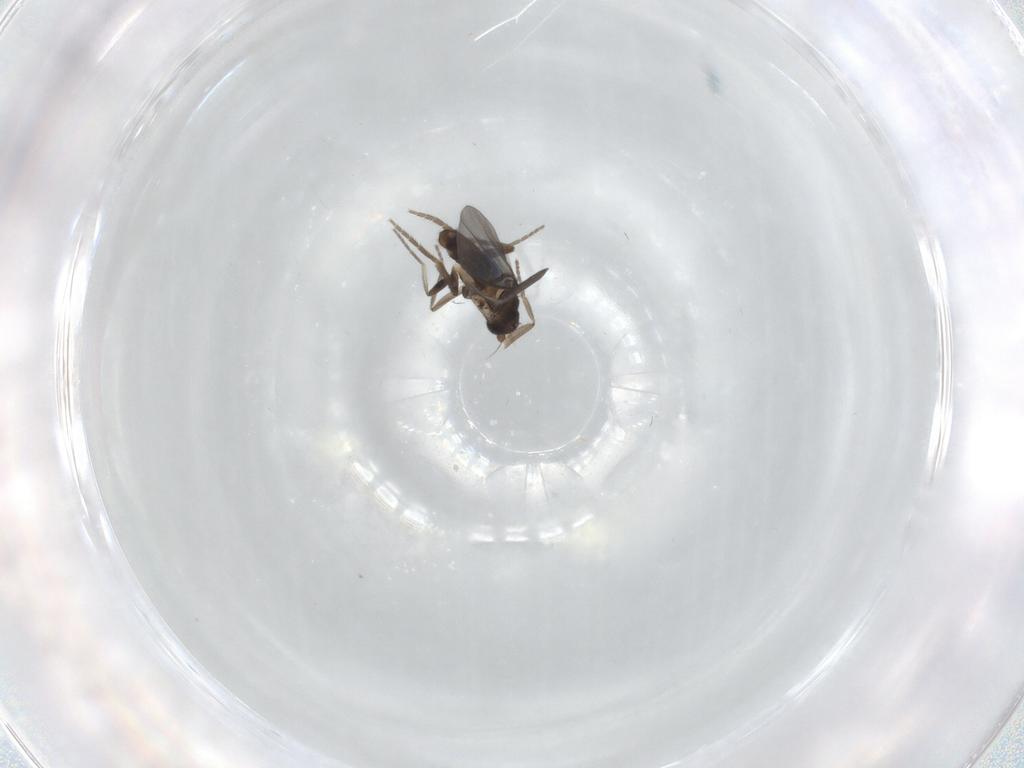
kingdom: Animalia
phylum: Arthropoda
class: Insecta
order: Diptera
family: Phoridae
